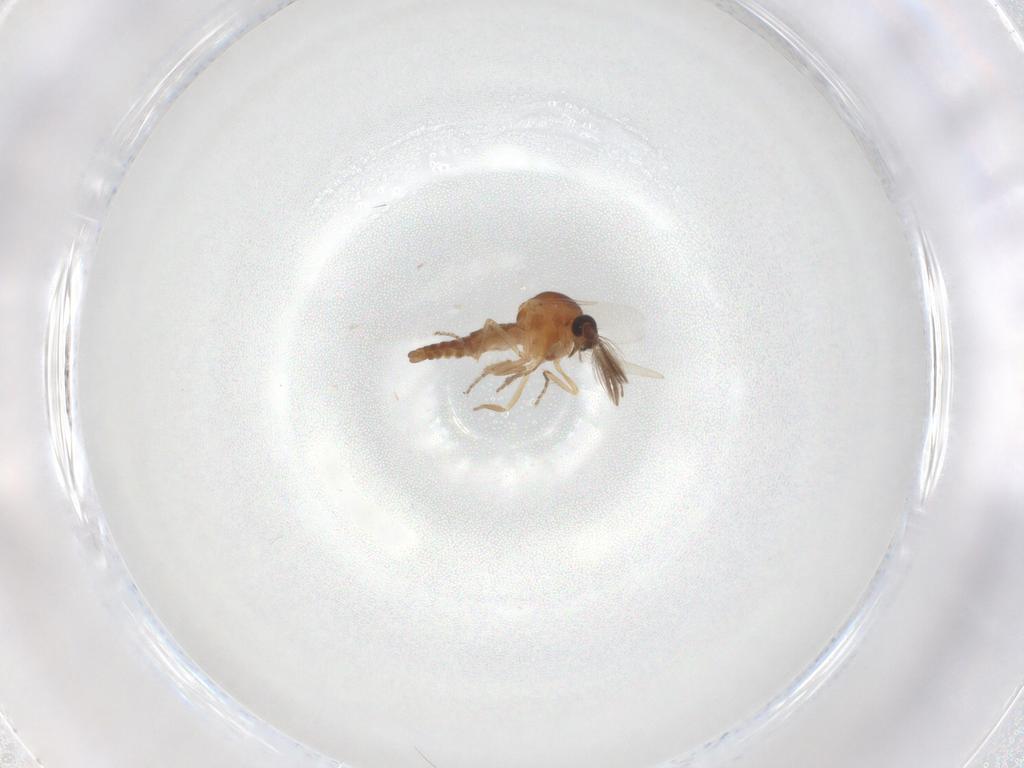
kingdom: Animalia
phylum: Arthropoda
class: Insecta
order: Diptera
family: Ceratopogonidae
